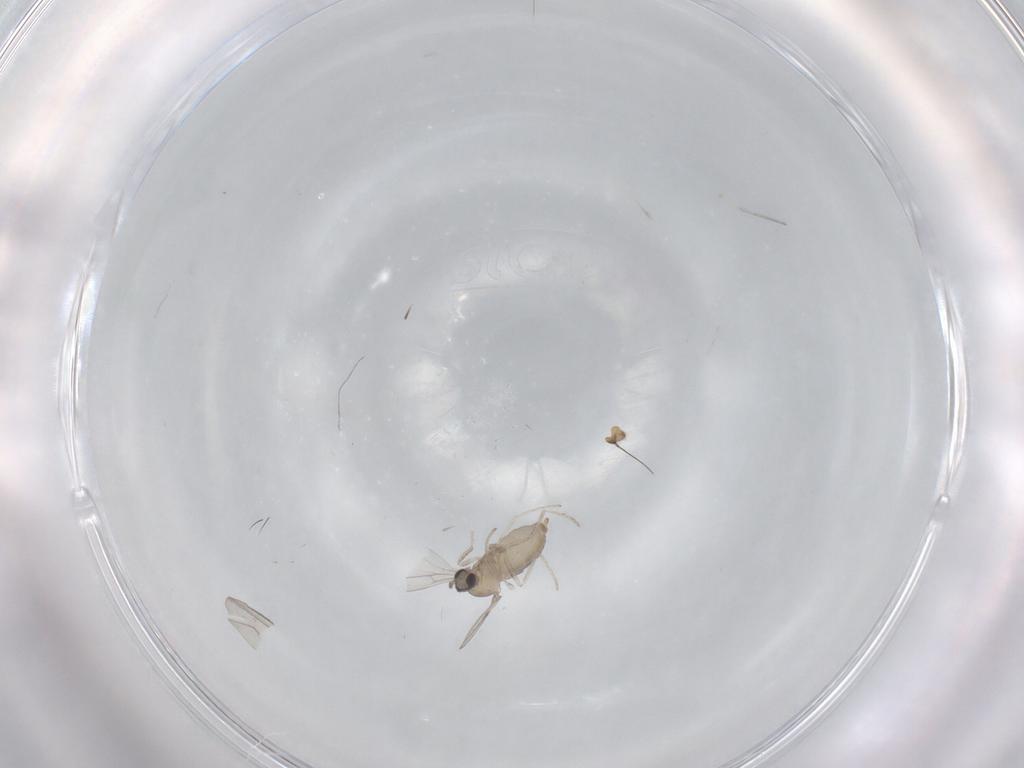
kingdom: Animalia
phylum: Arthropoda
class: Insecta
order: Diptera
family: Cecidomyiidae
